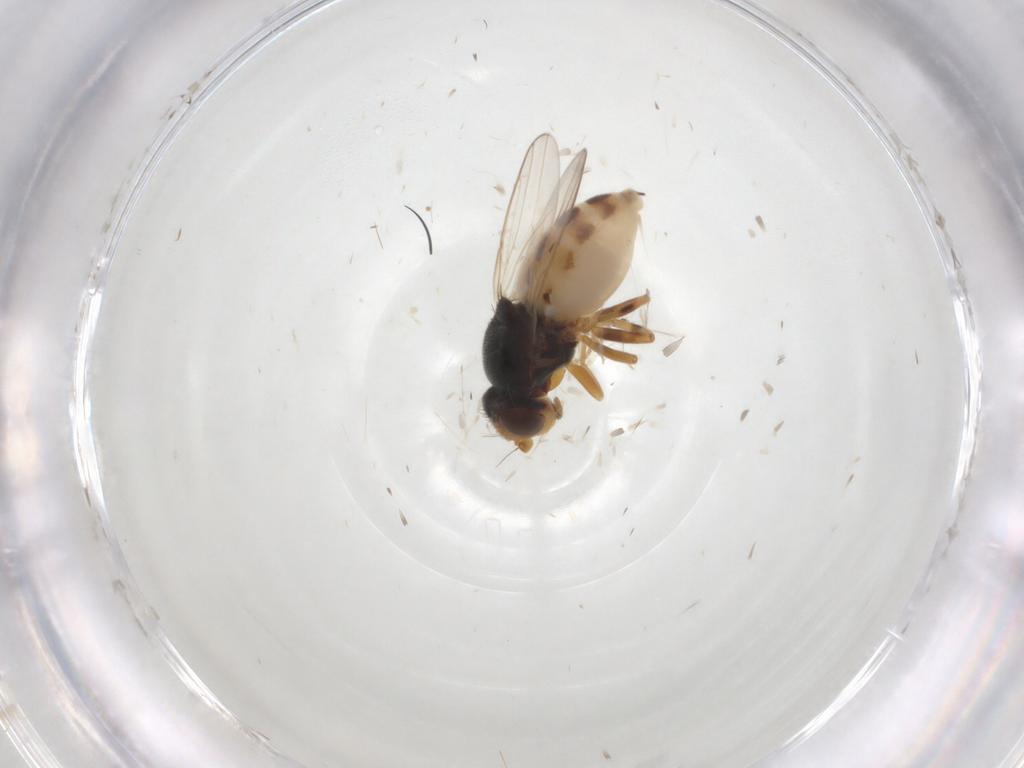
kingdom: Animalia
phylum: Arthropoda
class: Insecta
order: Diptera
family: Chloropidae
